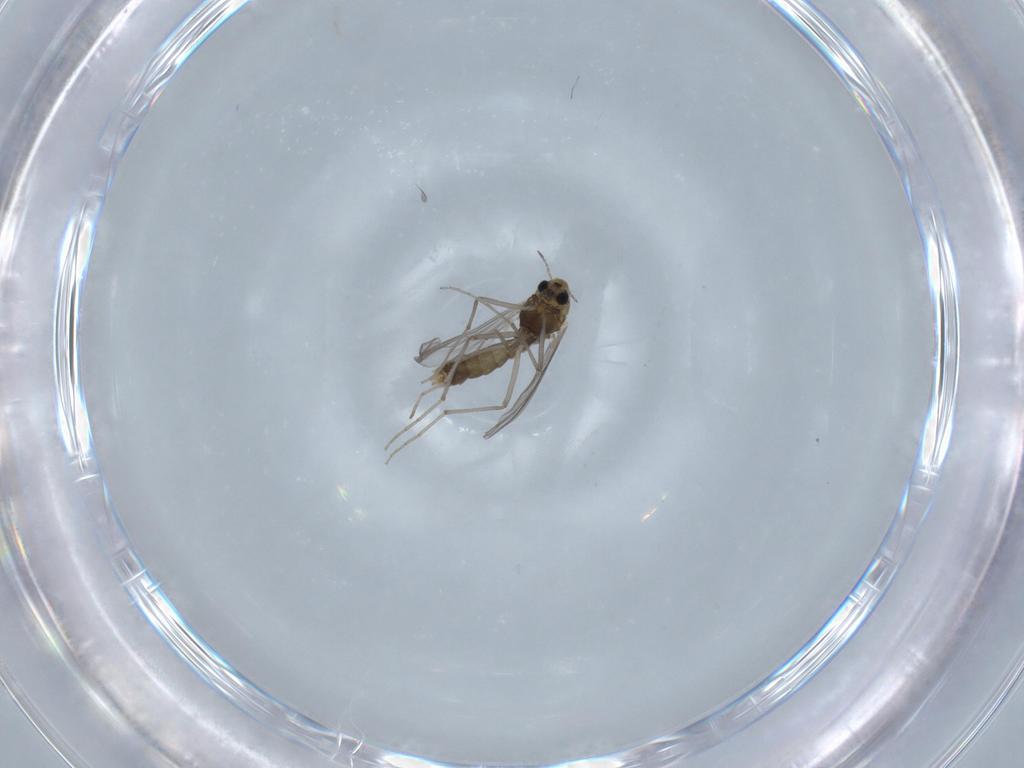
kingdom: Animalia
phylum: Arthropoda
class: Insecta
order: Diptera
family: Chironomidae
